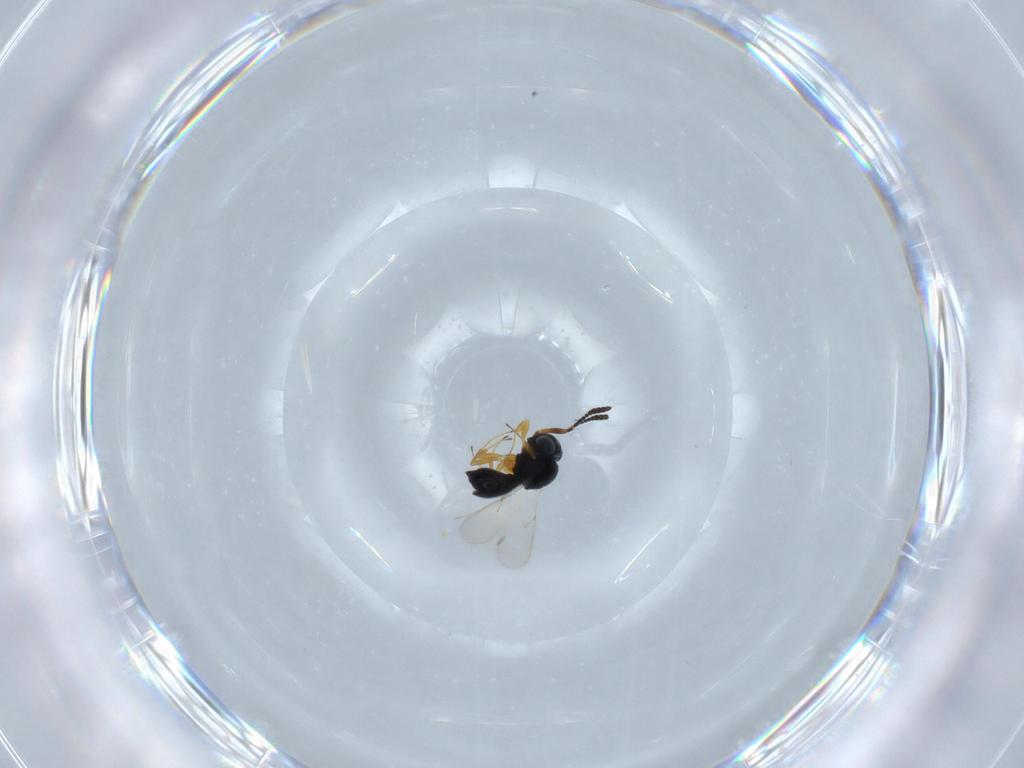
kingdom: Animalia
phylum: Arthropoda
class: Insecta
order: Hymenoptera
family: Scelionidae
